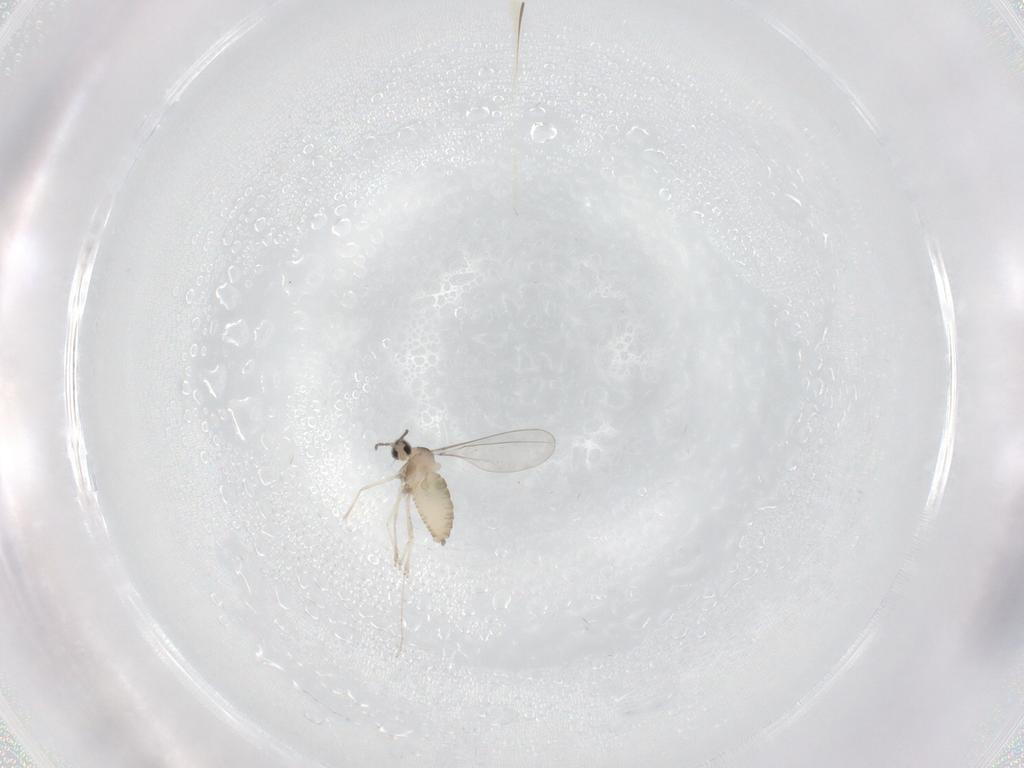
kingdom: Animalia
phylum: Arthropoda
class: Insecta
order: Diptera
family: Cecidomyiidae
